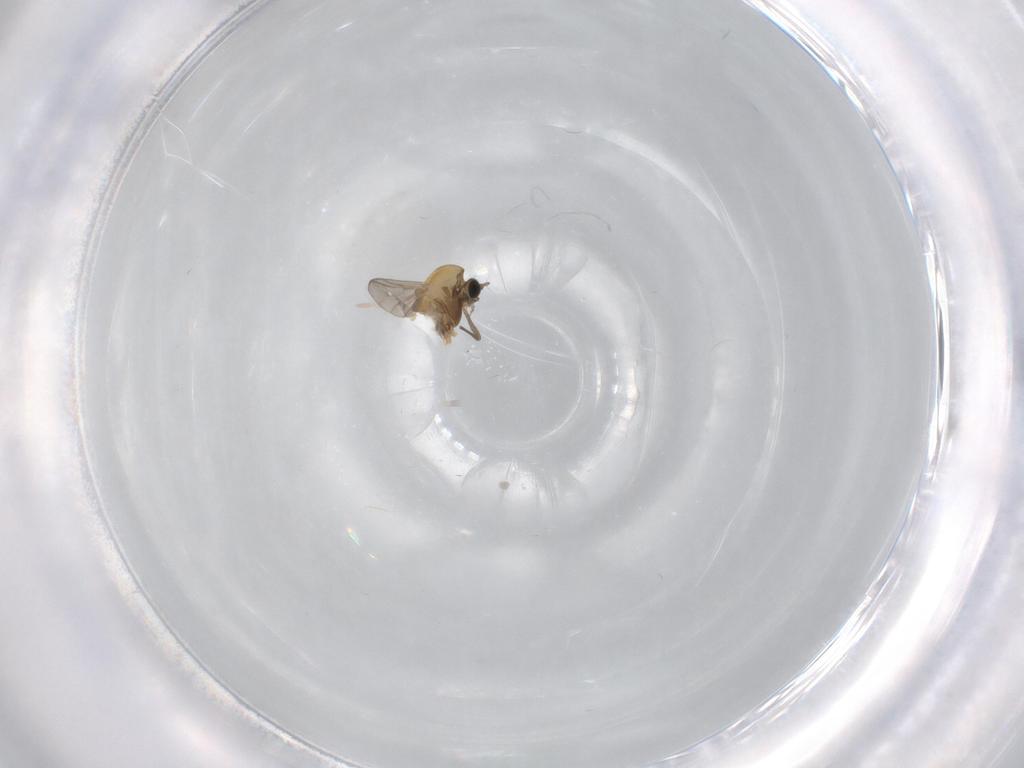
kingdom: Animalia
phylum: Arthropoda
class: Insecta
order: Diptera
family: Chironomidae
